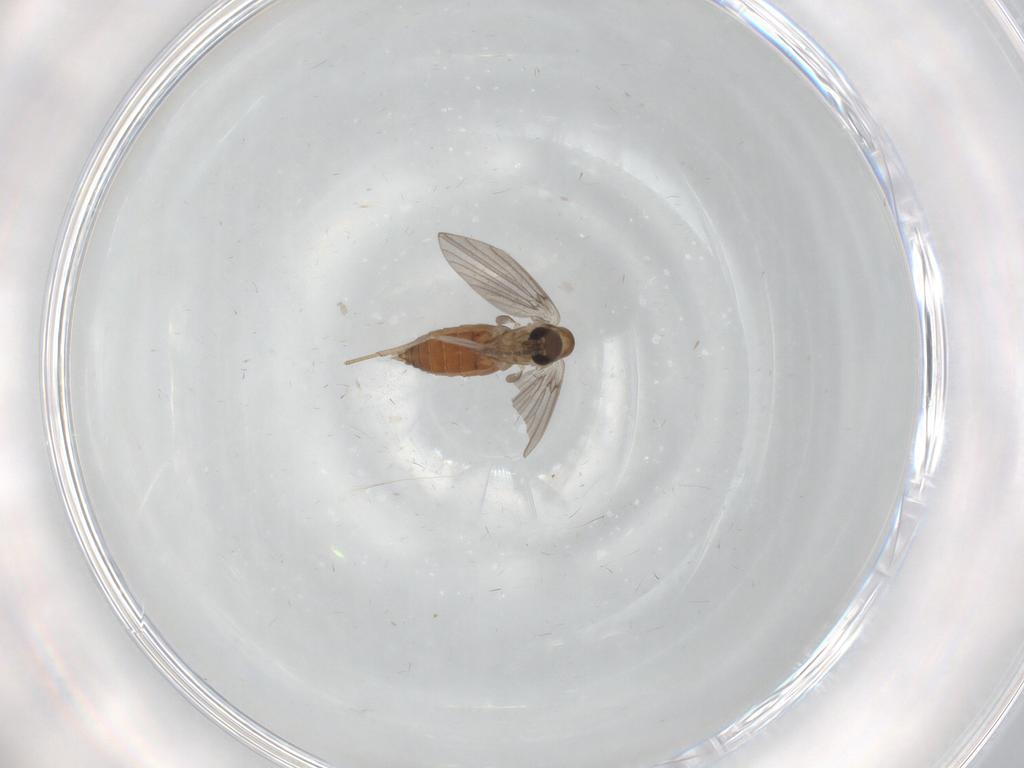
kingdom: Animalia
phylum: Arthropoda
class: Insecta
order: Diptera
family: Muscidae
